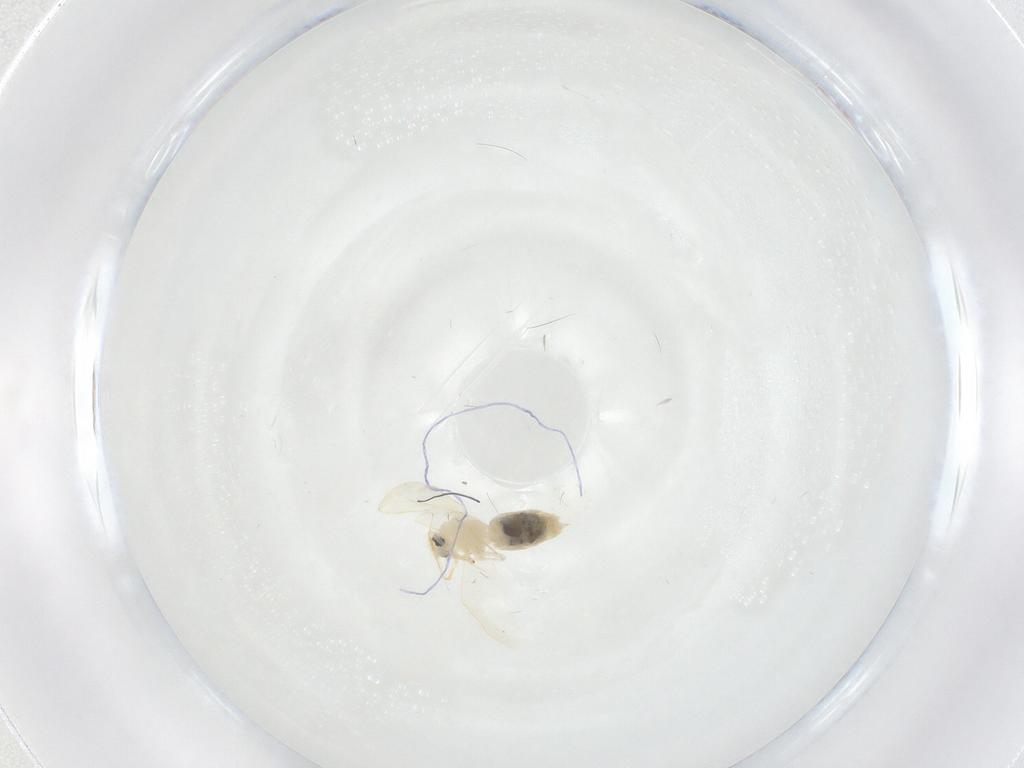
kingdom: Animalia
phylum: Arthropoda
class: Insecta
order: Hemiptera
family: Aleyrodidae
